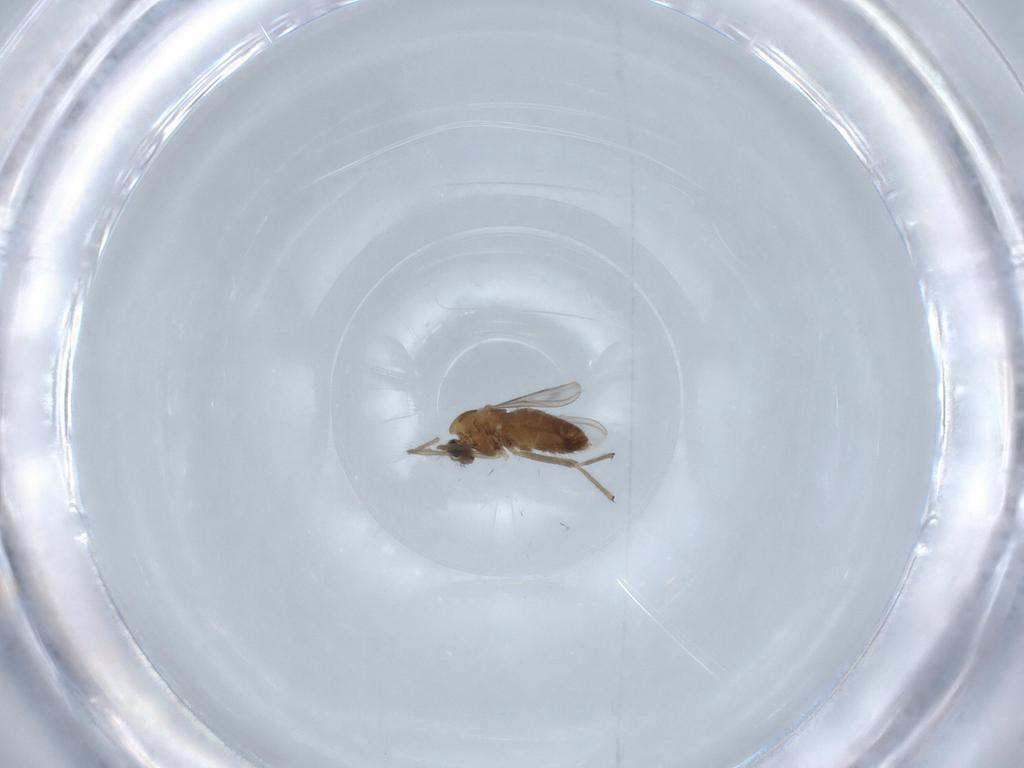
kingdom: Animalia
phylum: Arthropoda
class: Insecta
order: Diptera
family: Chironomidae
